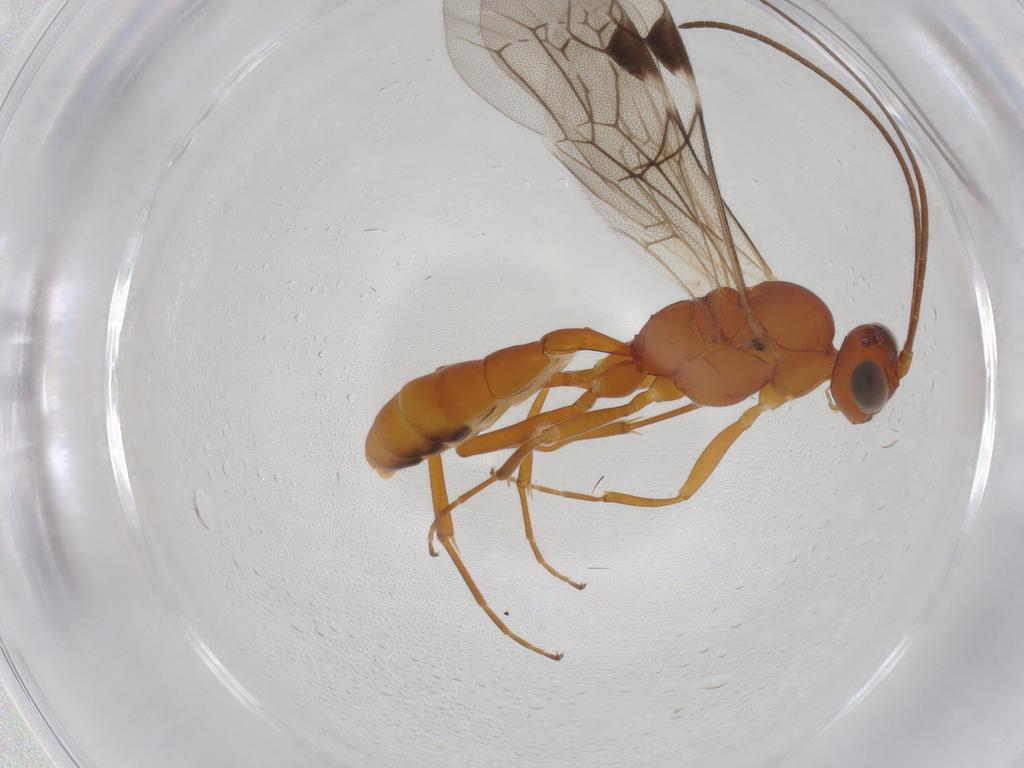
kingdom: Animalia
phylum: Arthropoda
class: Insecta
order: Hymenoptera
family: Ichneumonidae
